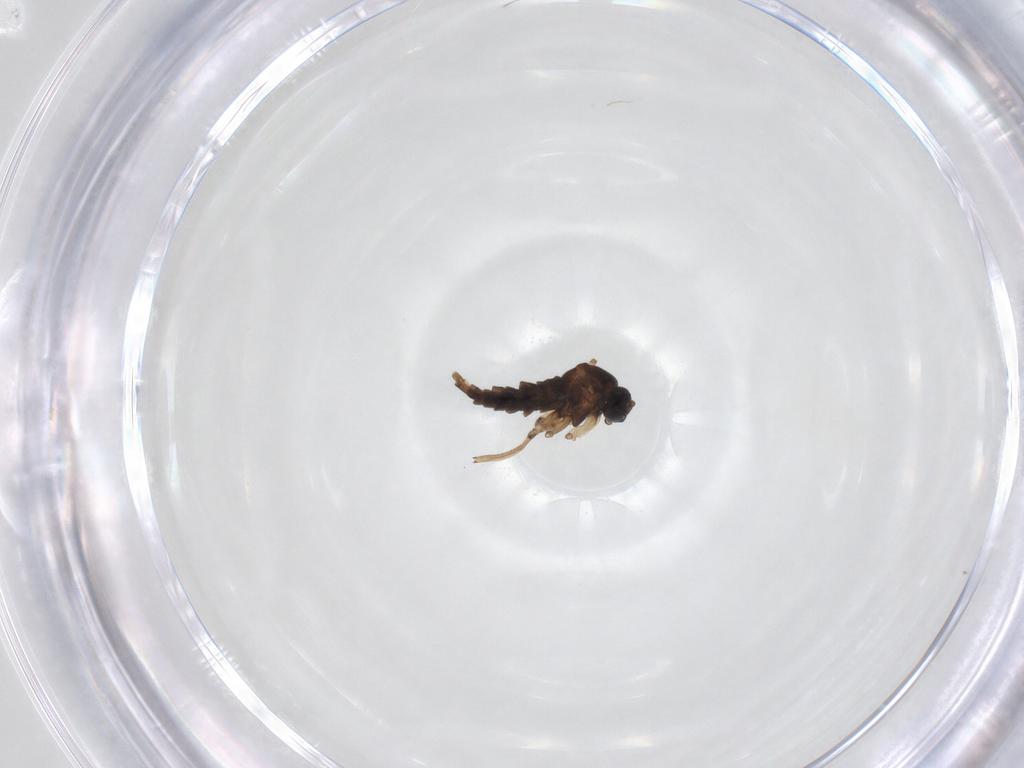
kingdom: Animalia
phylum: Arthropoda
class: Insecta
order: Diptera
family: Sciaridae
